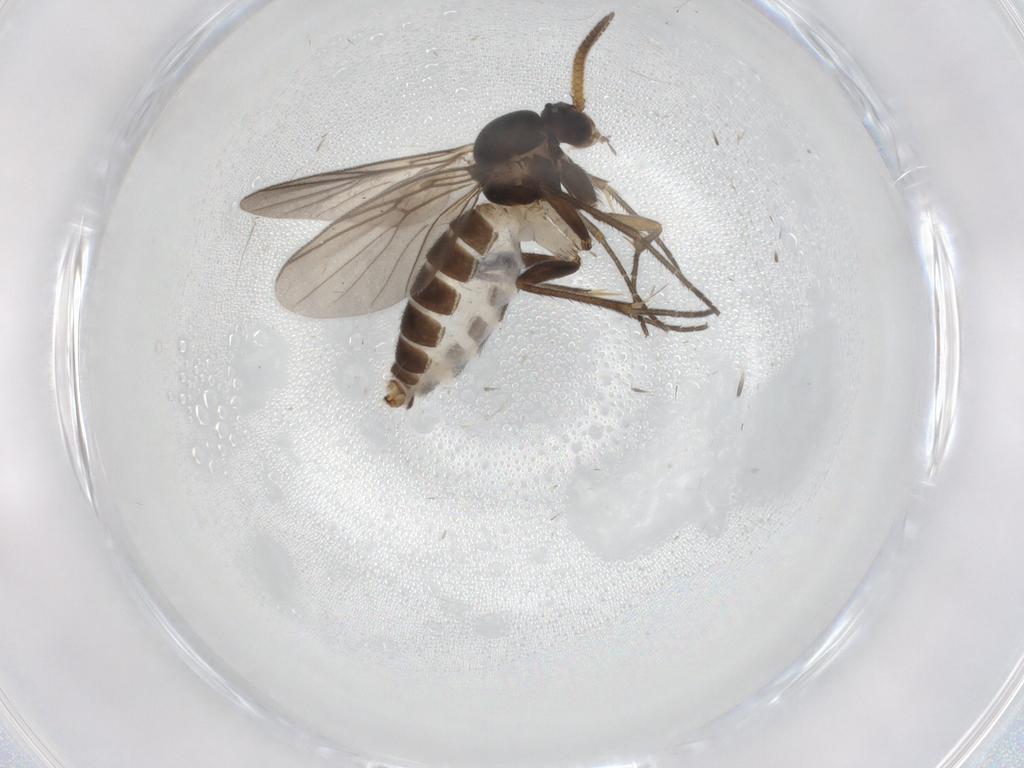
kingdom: Animalia
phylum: Arthropoda
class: Insecta
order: Diptera
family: Mycetophilidae
